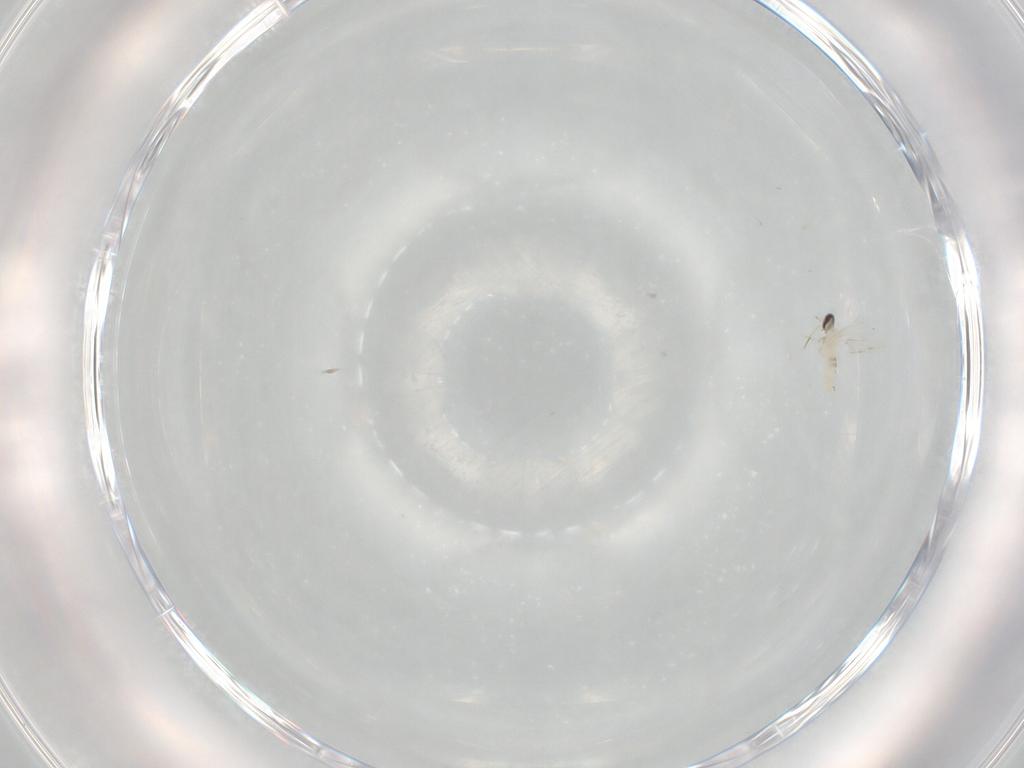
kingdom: Animalia
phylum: Arthropoda
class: Insecta
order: Diptera
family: Cecidomyiidae
